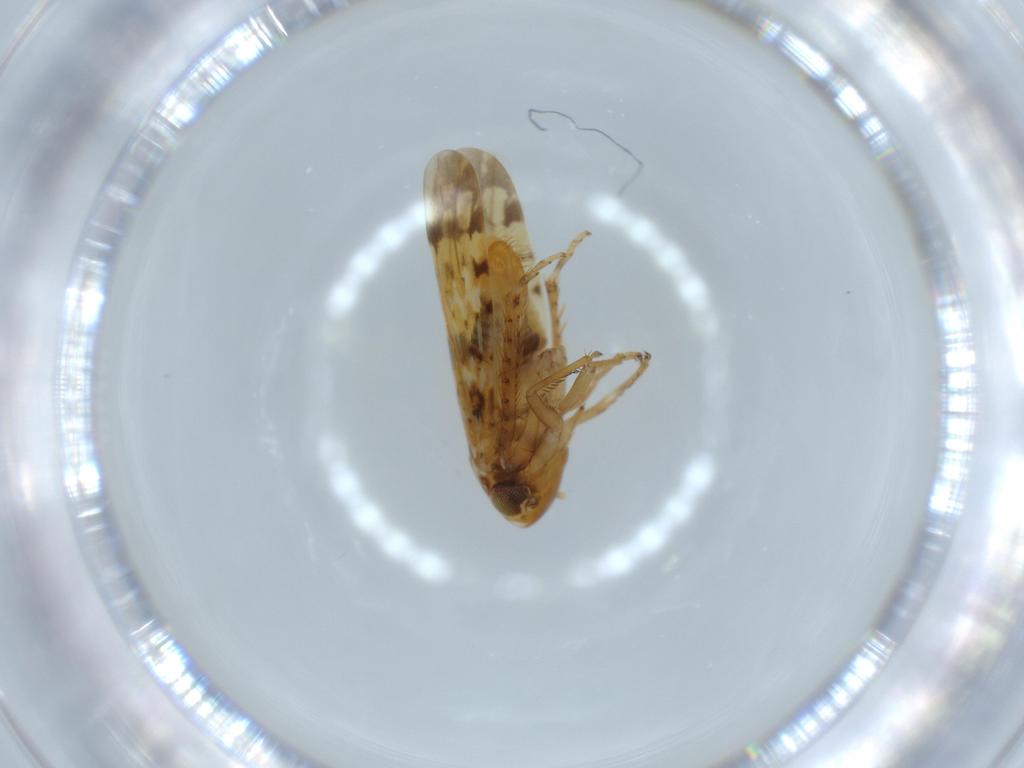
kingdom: Animalia
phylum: Arthropoda
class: Insecta
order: Hemiptera
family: Cicadellidae
